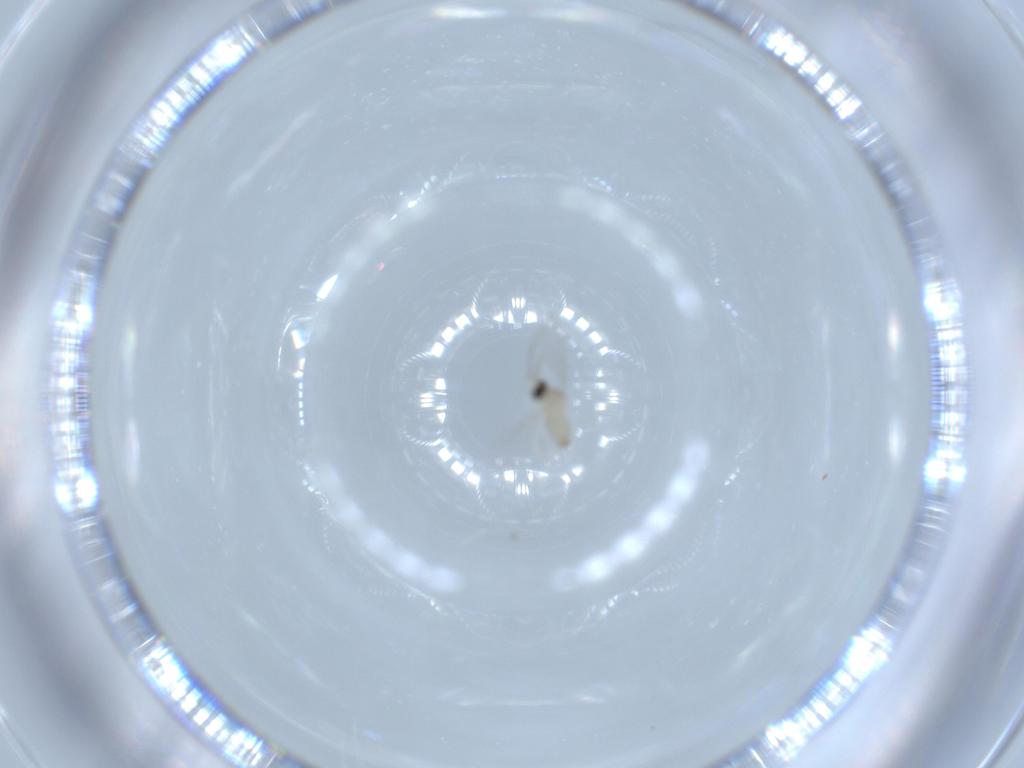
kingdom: Animalia
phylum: Arthropoda
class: Insecta
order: Diptera
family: Cecidomyiidae
